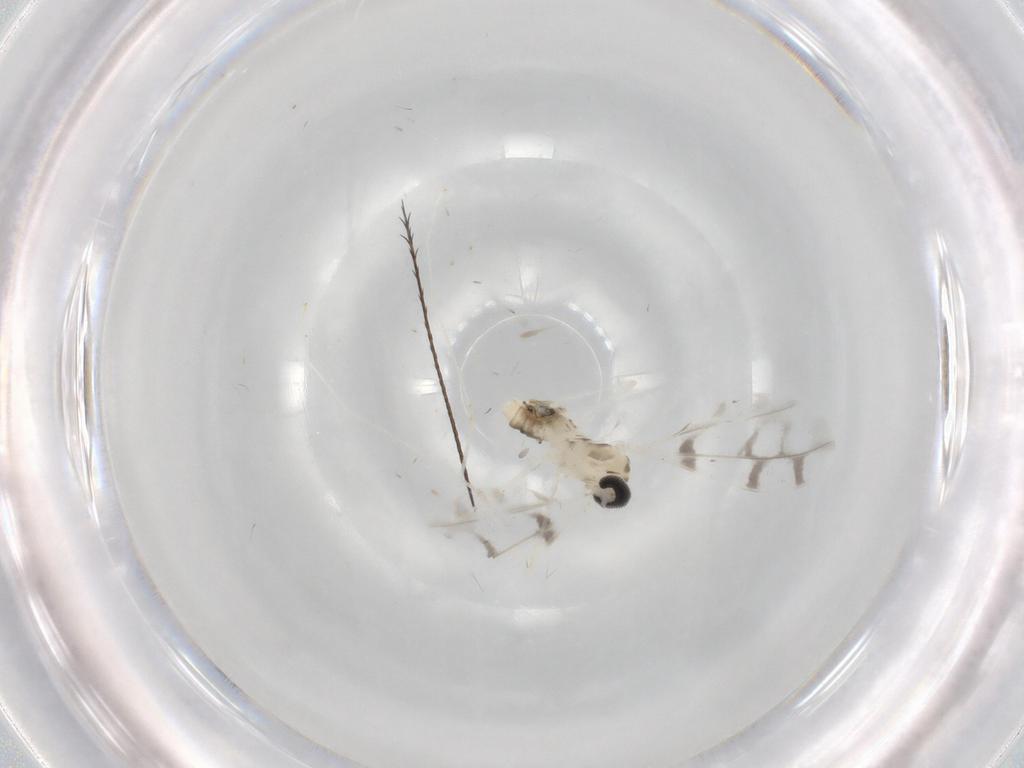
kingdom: Animalia
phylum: Arthropoda
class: Insecta
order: Diptera
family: Cecidomyiidae
